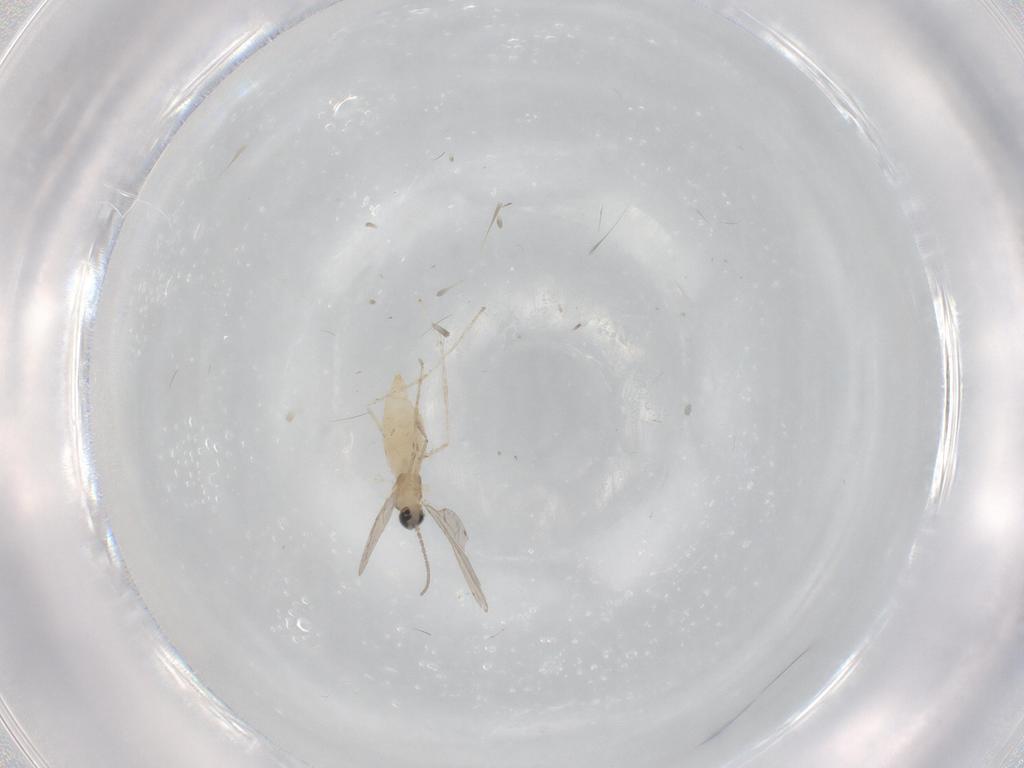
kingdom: Animalia
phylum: Arthropoda
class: Insecta
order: Diptera
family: Cecidomyiidae
